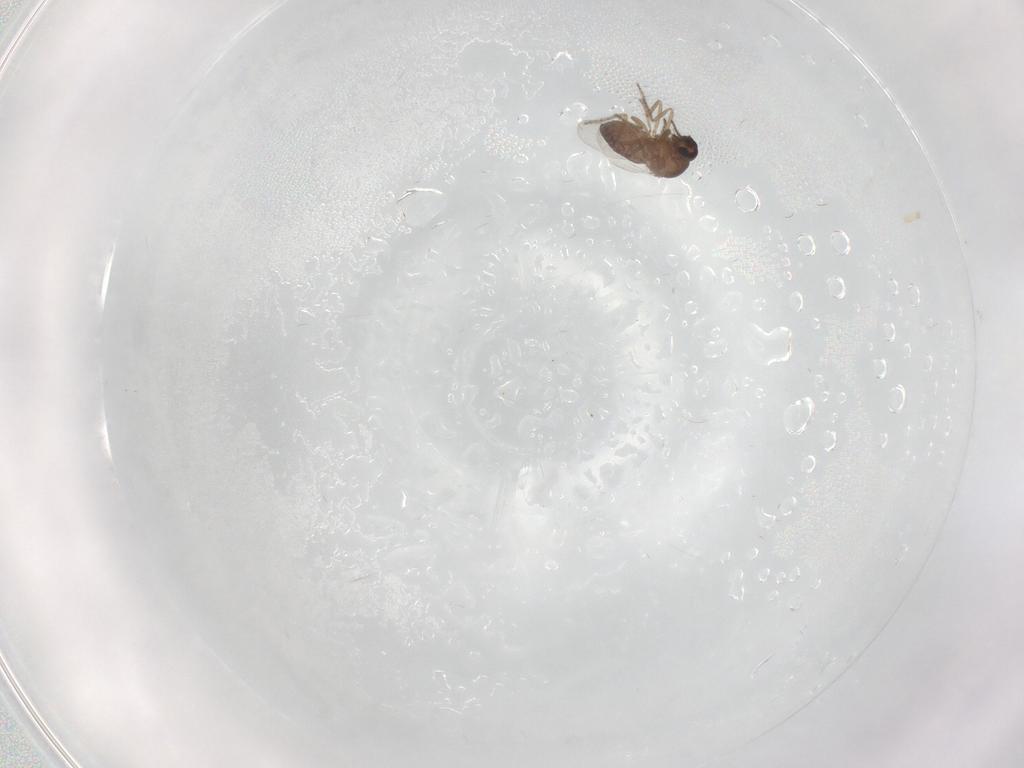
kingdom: Animalia
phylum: Arthropoda
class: Insecta
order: Diptera
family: Ceratopogonidae
